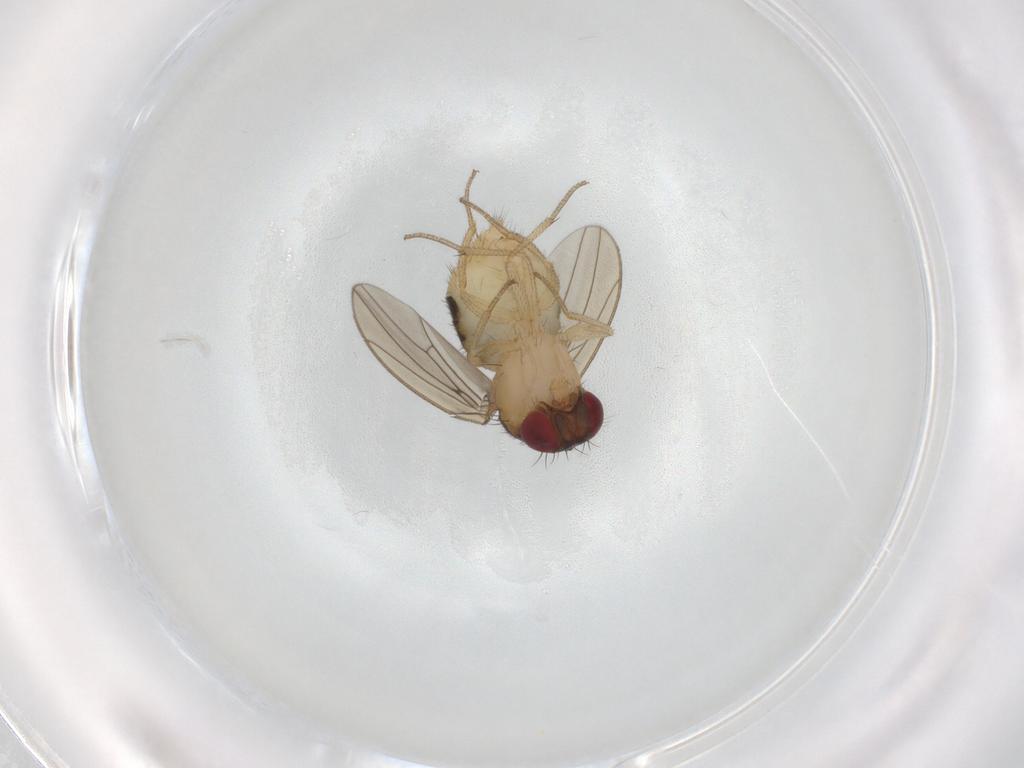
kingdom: Animalia
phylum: Arthropoda
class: Insecta
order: Diptera
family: Drosophilidae
